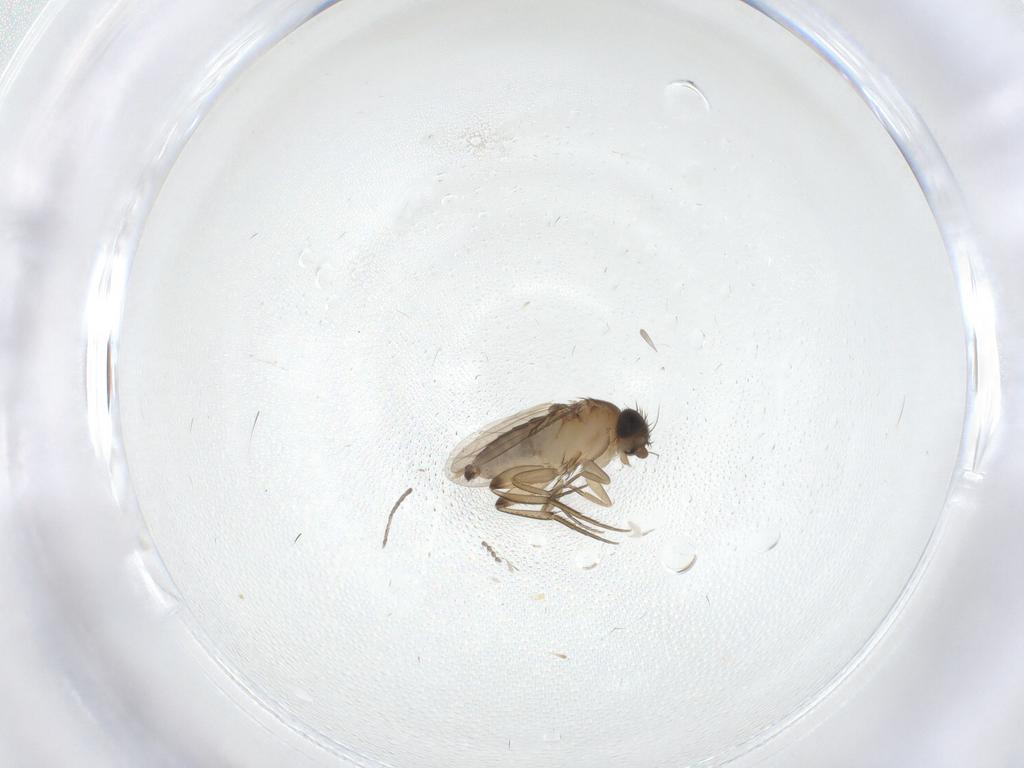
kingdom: Animalia
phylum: Arthropoda
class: Insecta
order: Diptera
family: Phoridae
